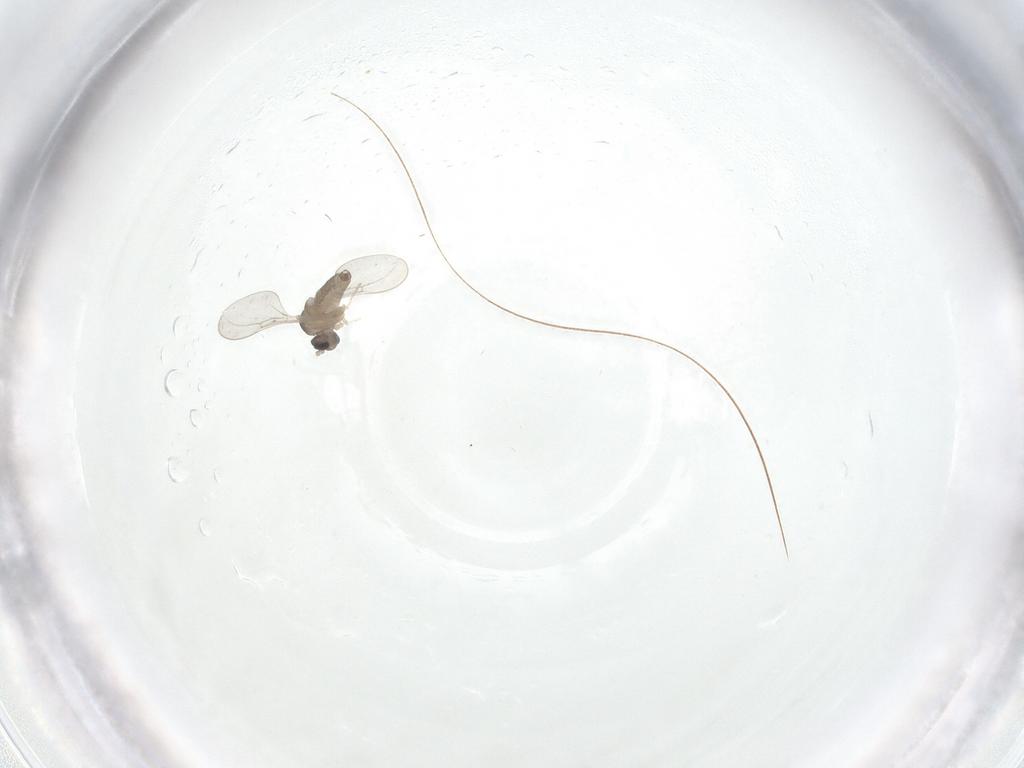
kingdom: Animalia
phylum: Arthropoda
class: Insecta
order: Diptera
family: Cecidomyiidae
